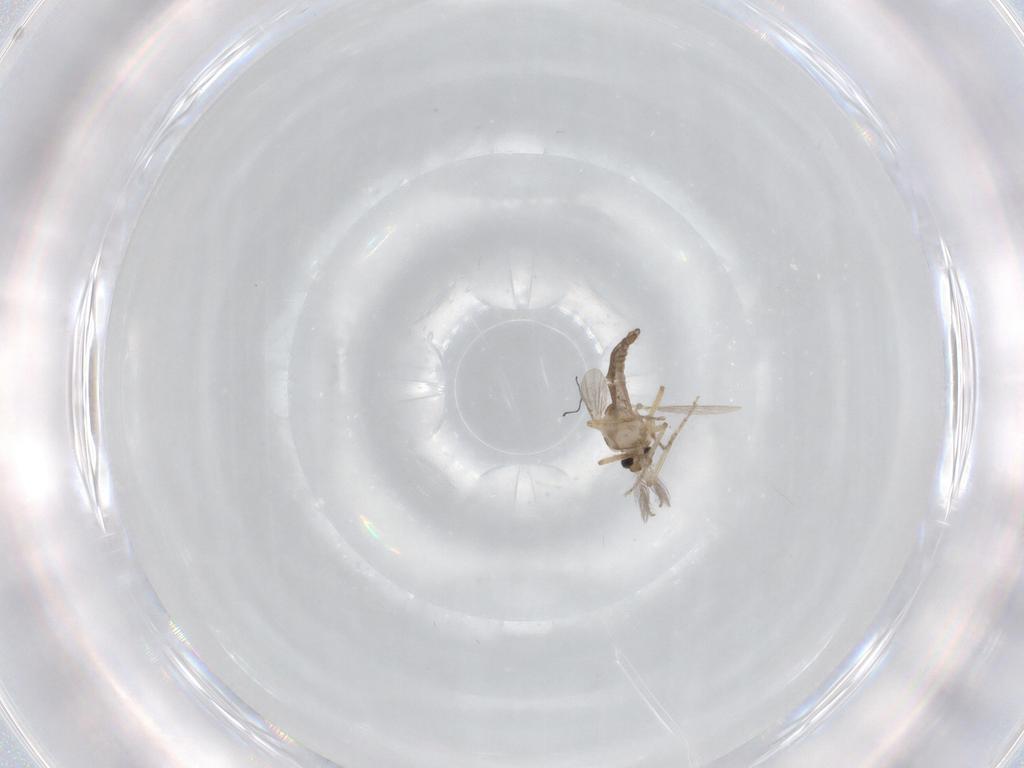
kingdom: Animalia
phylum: Arthropoda
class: Insecta
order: Diptera
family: Ceratopogonidae
